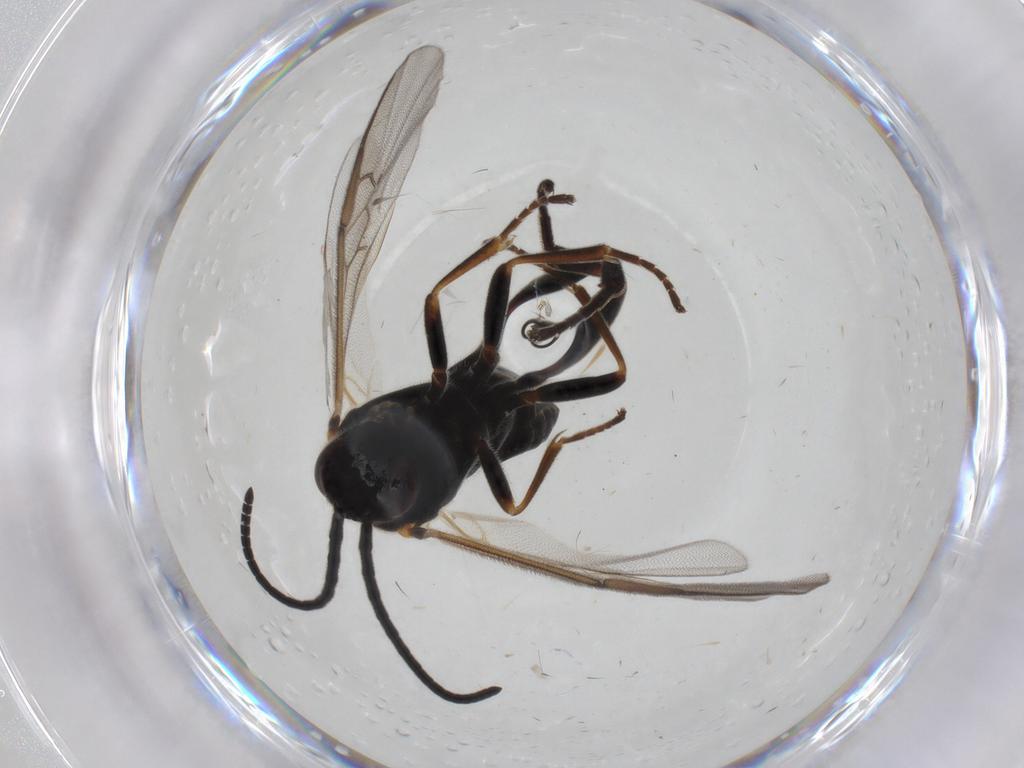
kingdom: Animalia
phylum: Arthropoda
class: Insecta
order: Hymenoptera
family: Braconidae
